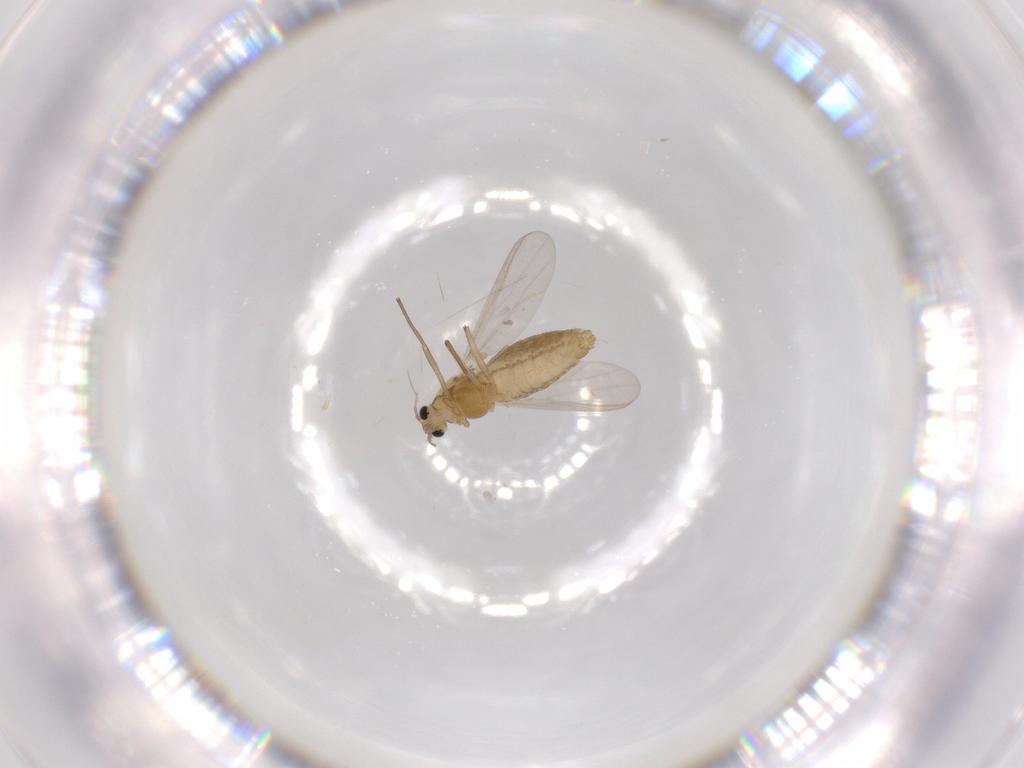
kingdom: Animalia
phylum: Arthropoda
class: Insecta
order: Diptera
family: Chironomidae
